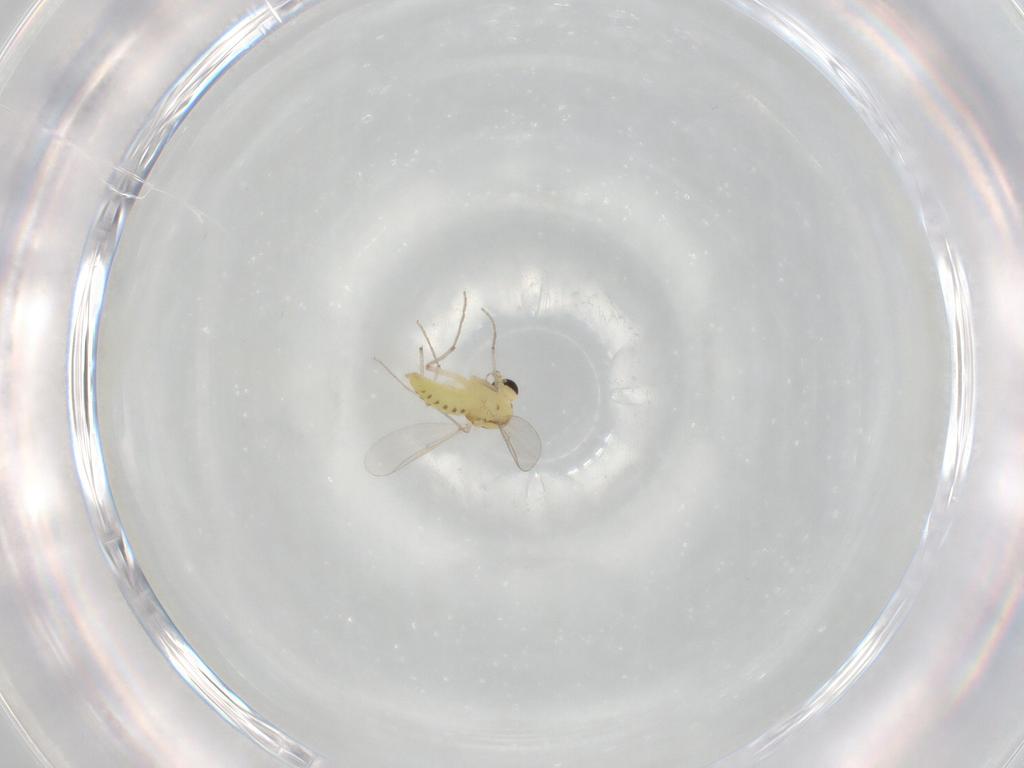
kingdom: Animalia
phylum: Arthropoda
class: Insecta
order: Diptera
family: Chironomidae
